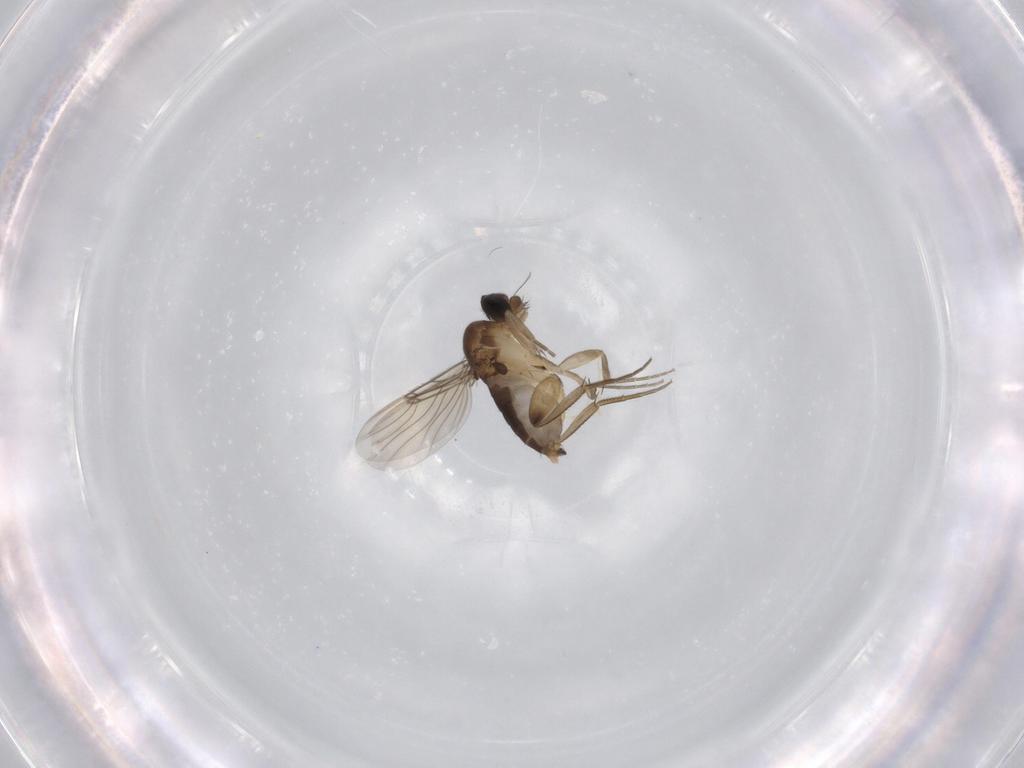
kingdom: Animalia
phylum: Arthropoda
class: Insecta
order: Diptera
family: Phoridae
